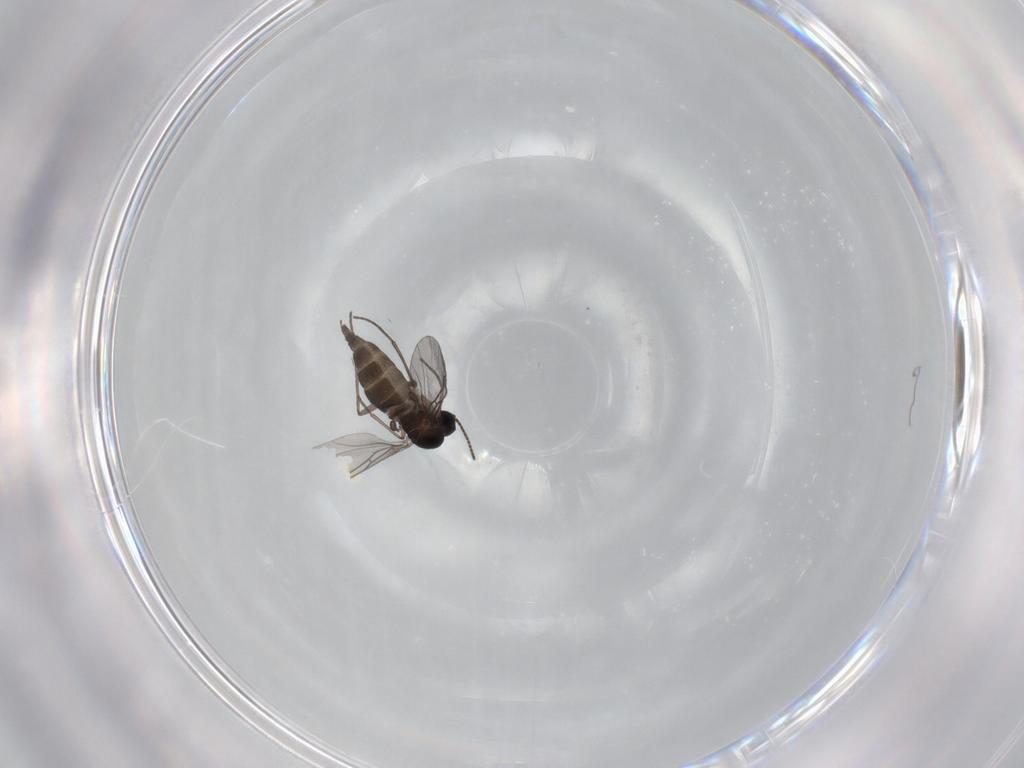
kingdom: Animalia
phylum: Arthropoda
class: Insecta
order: Diptera
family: Sciaridae
